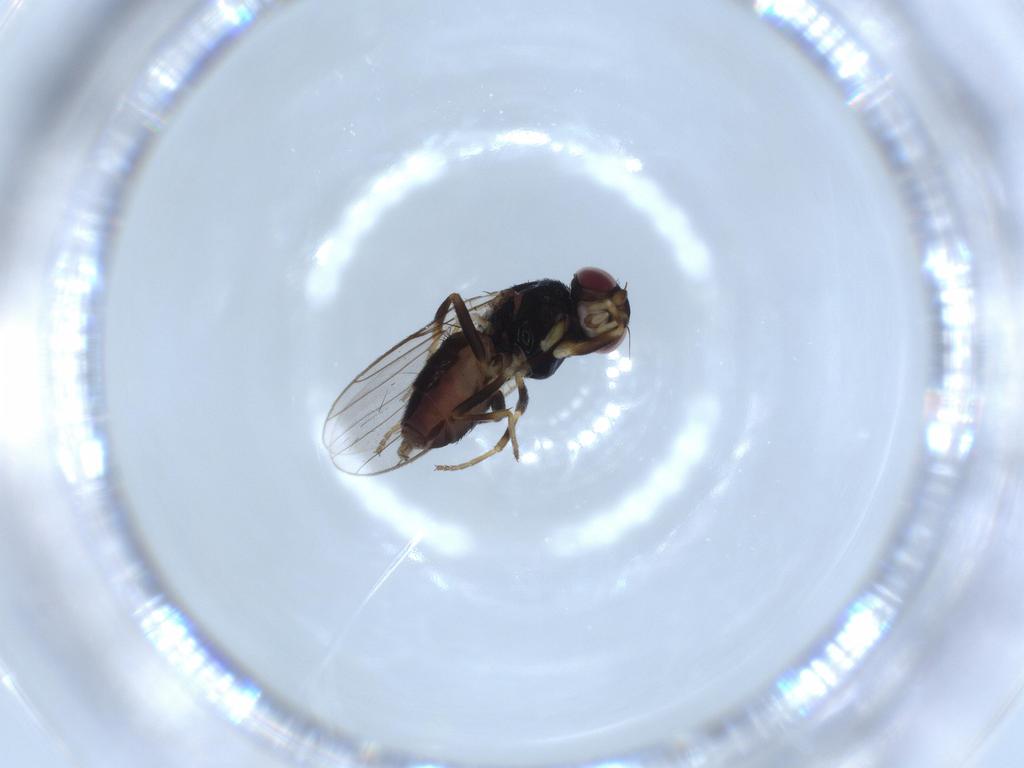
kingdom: Animalia
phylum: Arthropoda
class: Insecta
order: Diptera
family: Chloropidae
